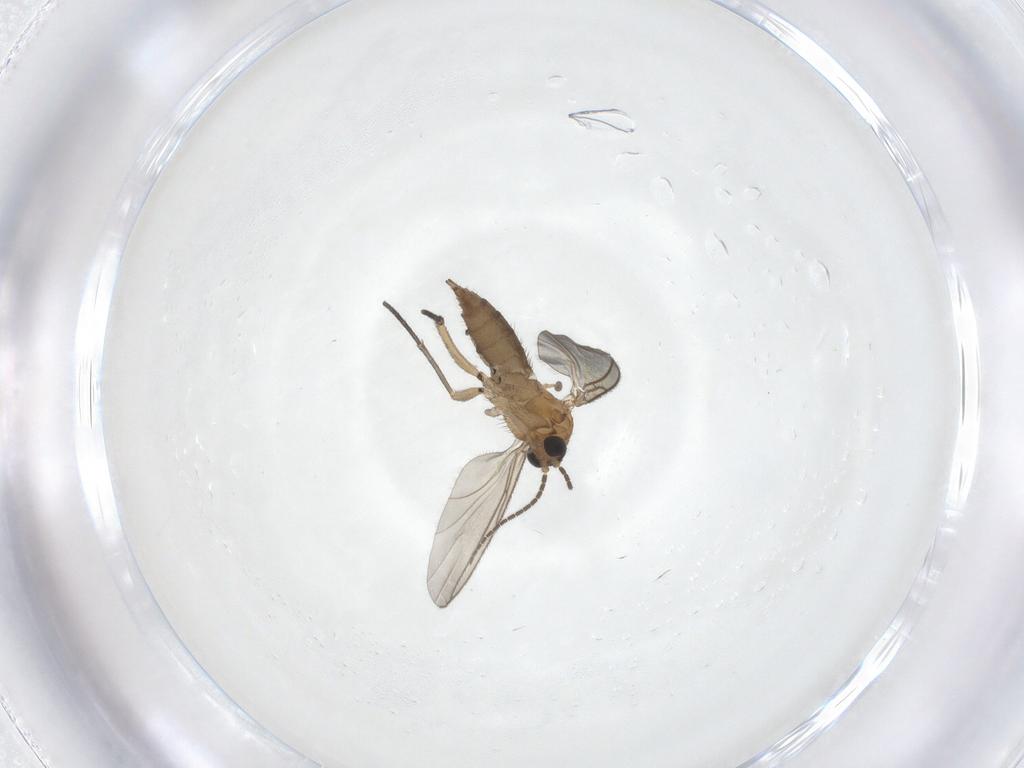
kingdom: Animalia
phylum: Arthropoda
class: Insecta
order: Diptera
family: Sciaridae
